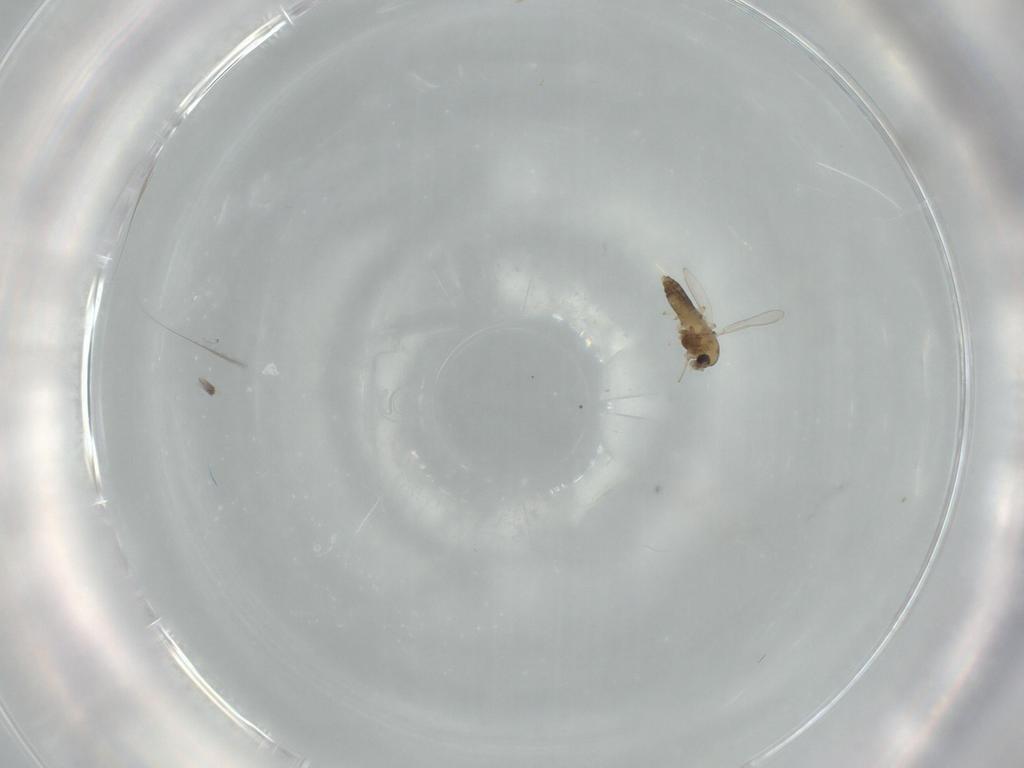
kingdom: Animalia
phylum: Arthropoda
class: Insecta
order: Diptera
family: Chironomidae
